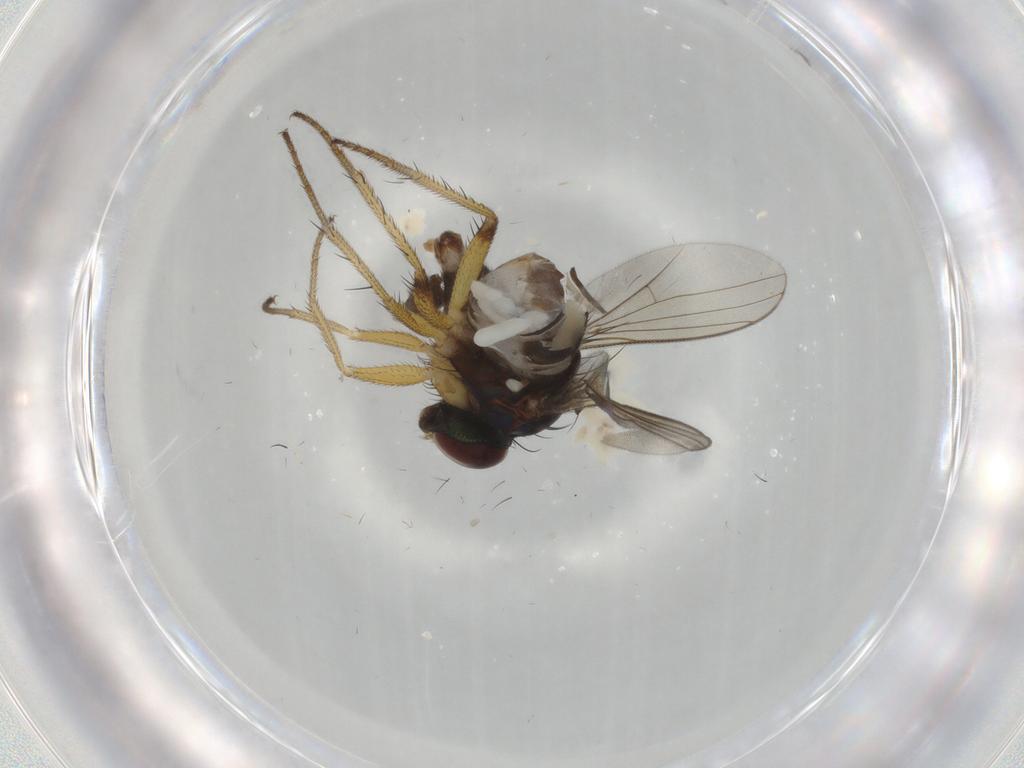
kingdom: Animalia
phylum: Arthropoda
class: Insecta
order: Diptera
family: Dolichopodidae
